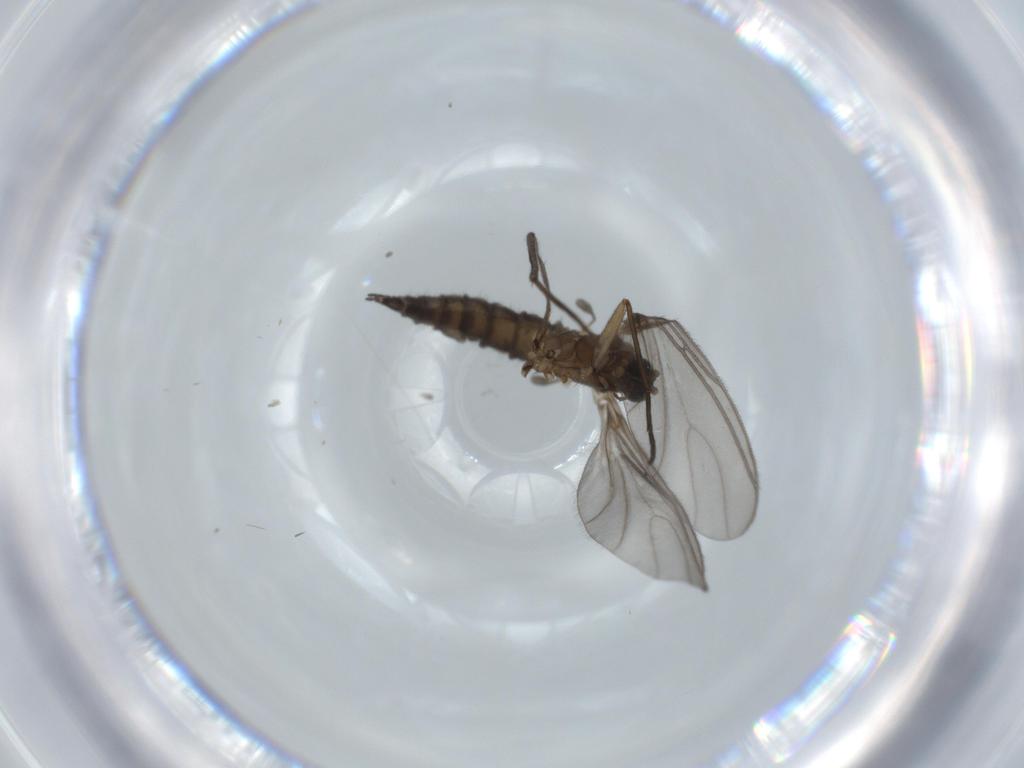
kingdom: Animalia
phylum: Arthropoda
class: Insecta
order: Diptera
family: Sciaridae
